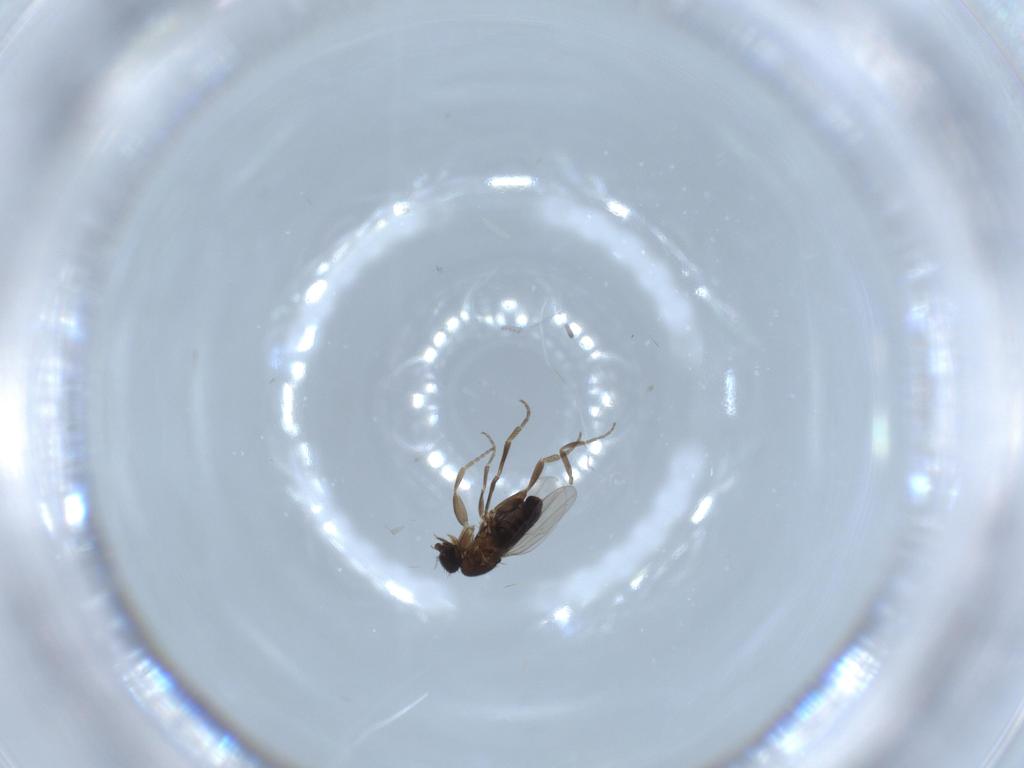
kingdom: Animalia
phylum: Arthropoda
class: Insecta
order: Diptera
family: Phoridae
